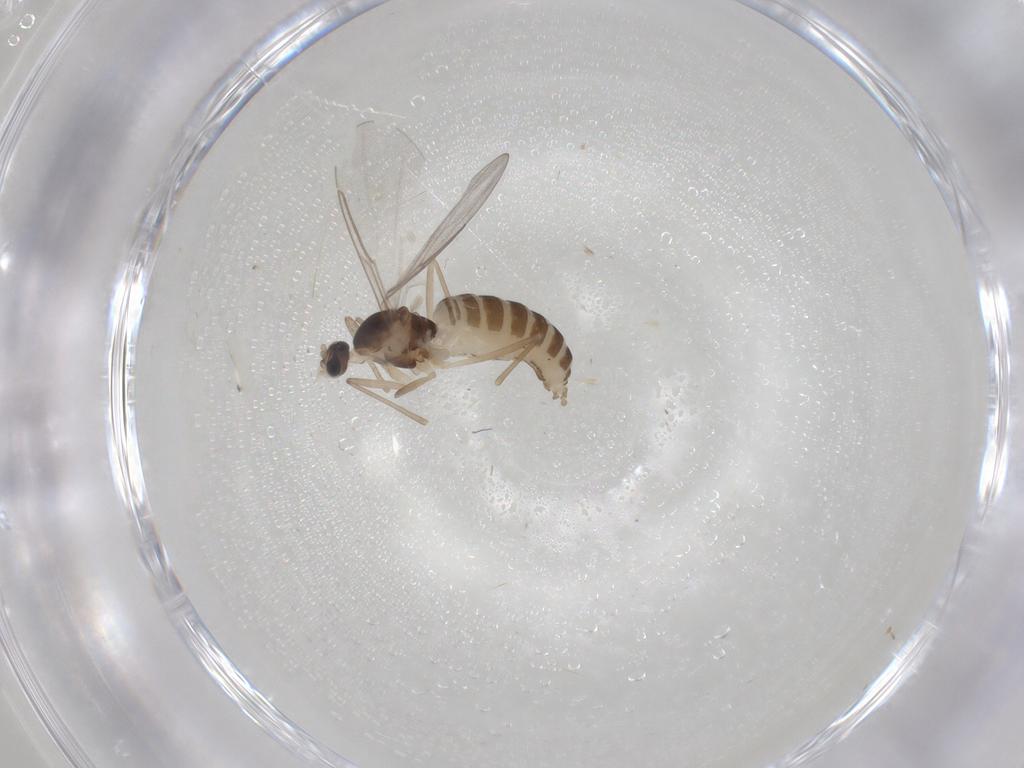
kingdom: Animalia
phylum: Arthropoda
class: Insecta
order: Diptera
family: Cecidomyiidae
